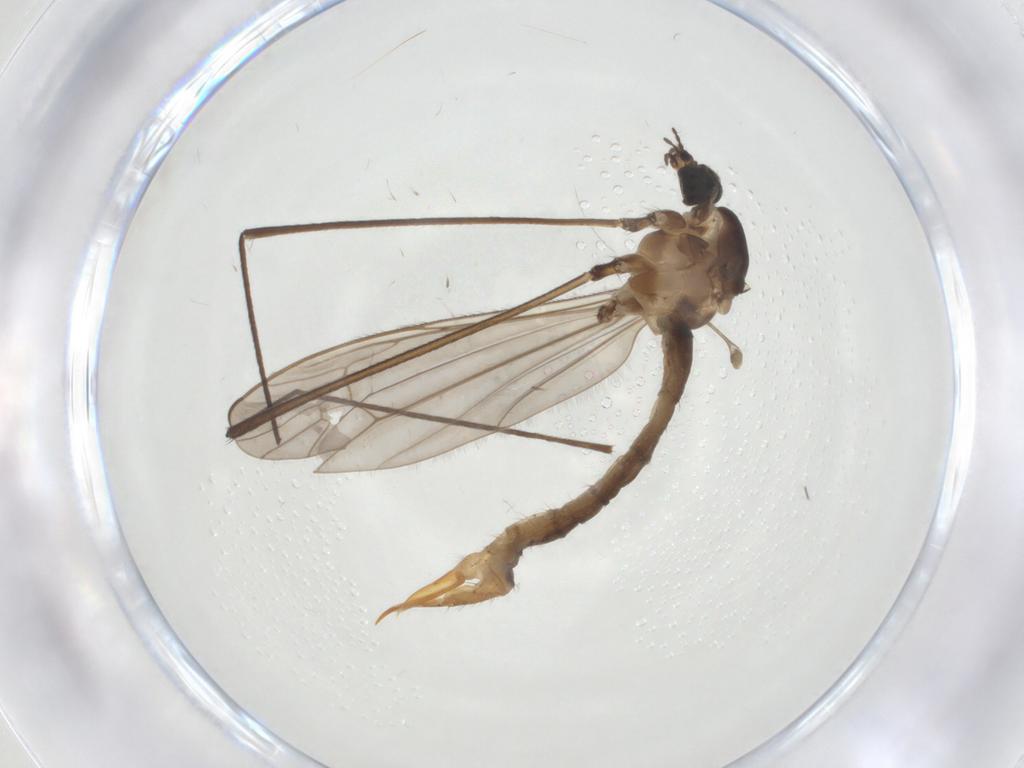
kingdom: Animalia
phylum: Arthropoda
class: Insecta
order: Diptera
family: Limoniidae
